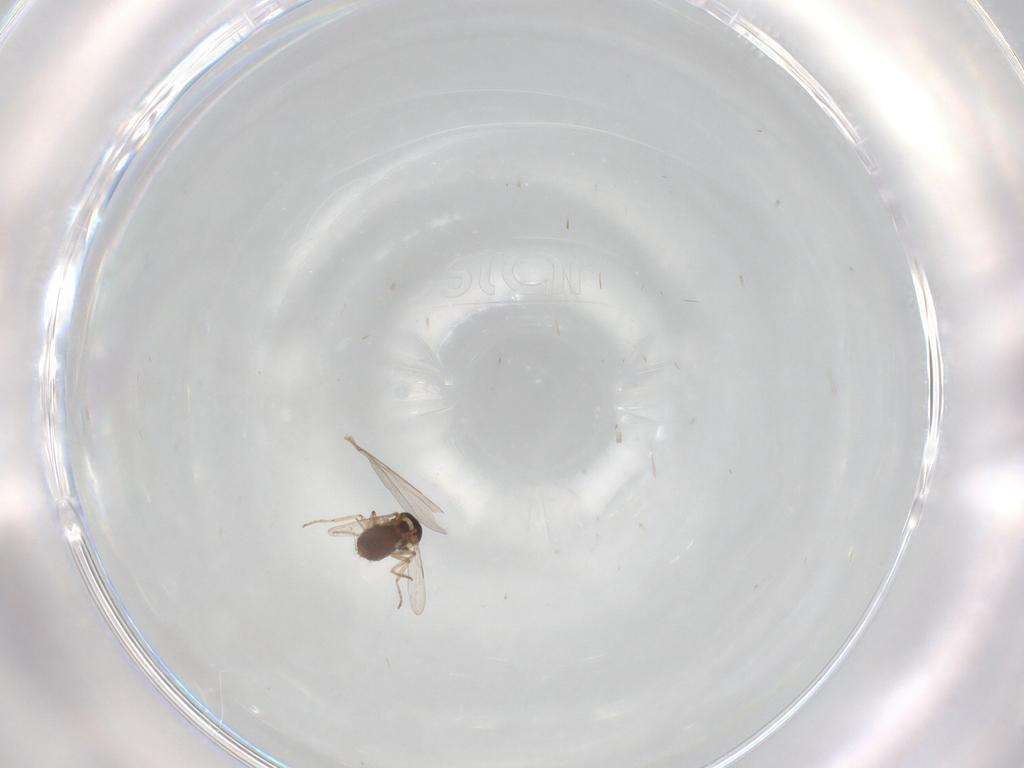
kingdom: Animalia
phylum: Arthropoda
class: Insecta
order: Diptera
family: Ceratopogonidae
